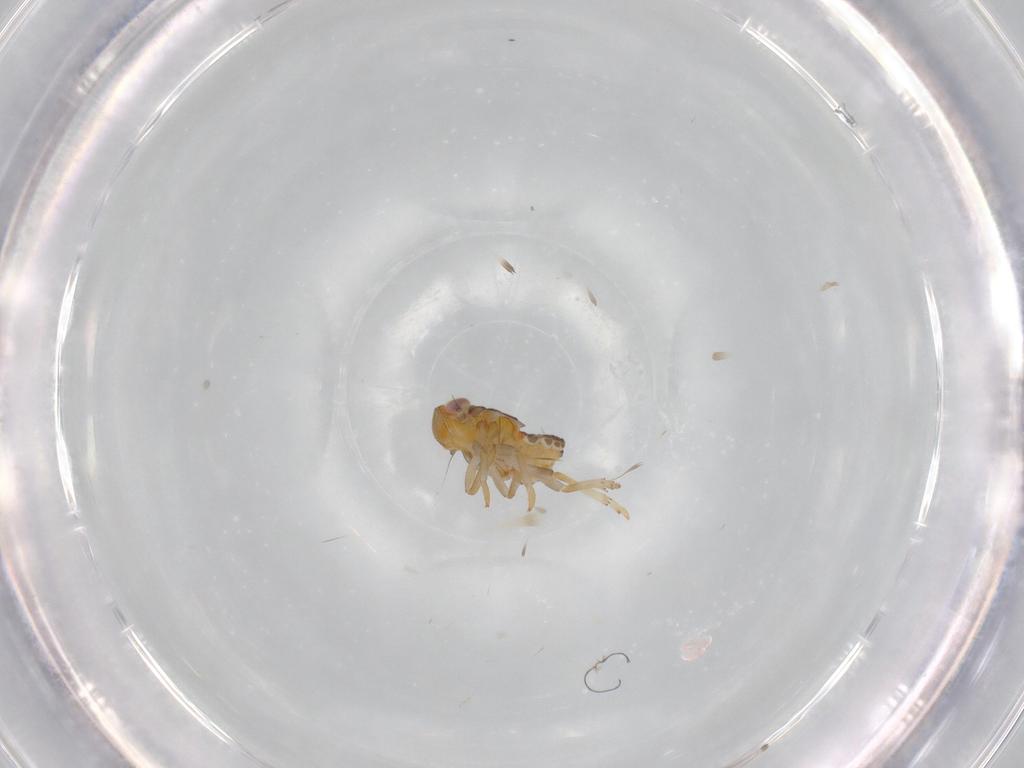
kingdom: Animalia
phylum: Arthropoda
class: Insecta
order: Hemiptera
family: Issidae
